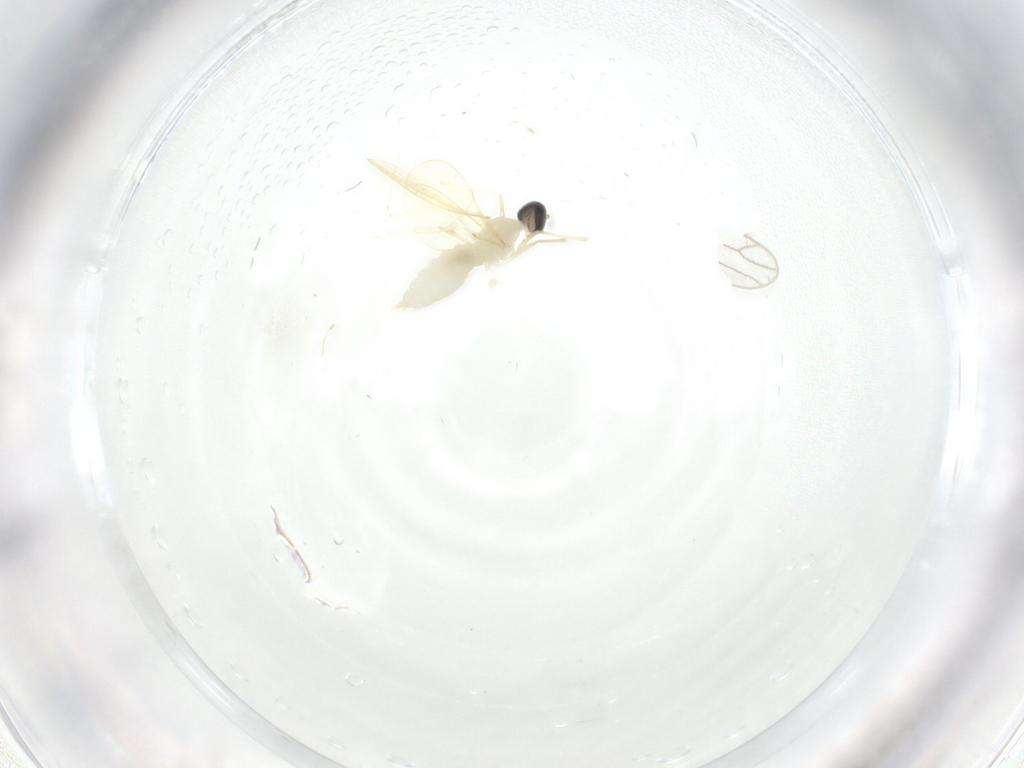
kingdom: Animalia
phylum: Arthropoda
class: Insecta
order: Diptera
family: Cecidomyiidae
